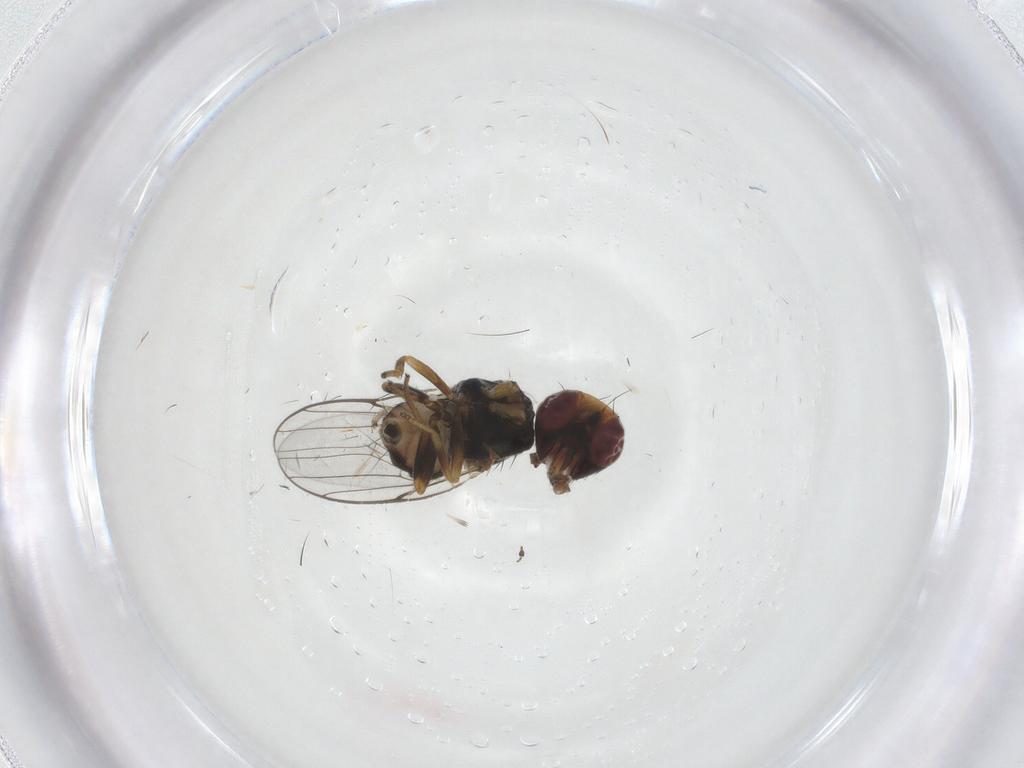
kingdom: Animalia
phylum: Arthropoda
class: Insecta
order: Diptera
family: Chloropidae
